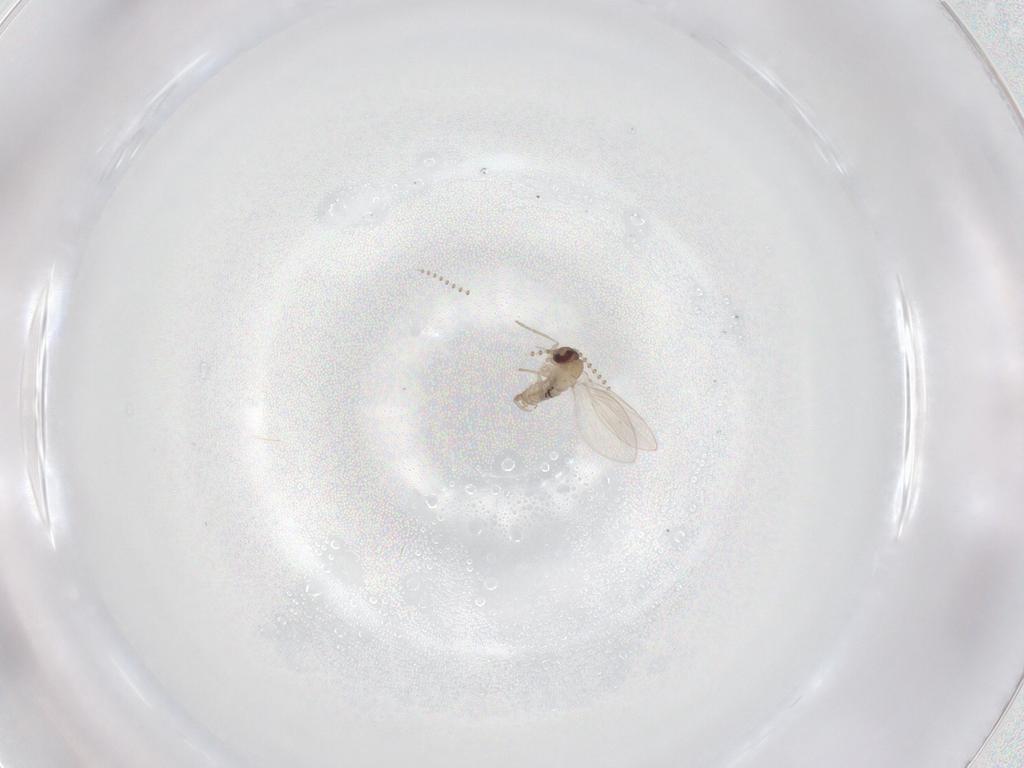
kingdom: Animalia
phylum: Arthropoda
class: Insecta
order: Diptera
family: Psychodidae
